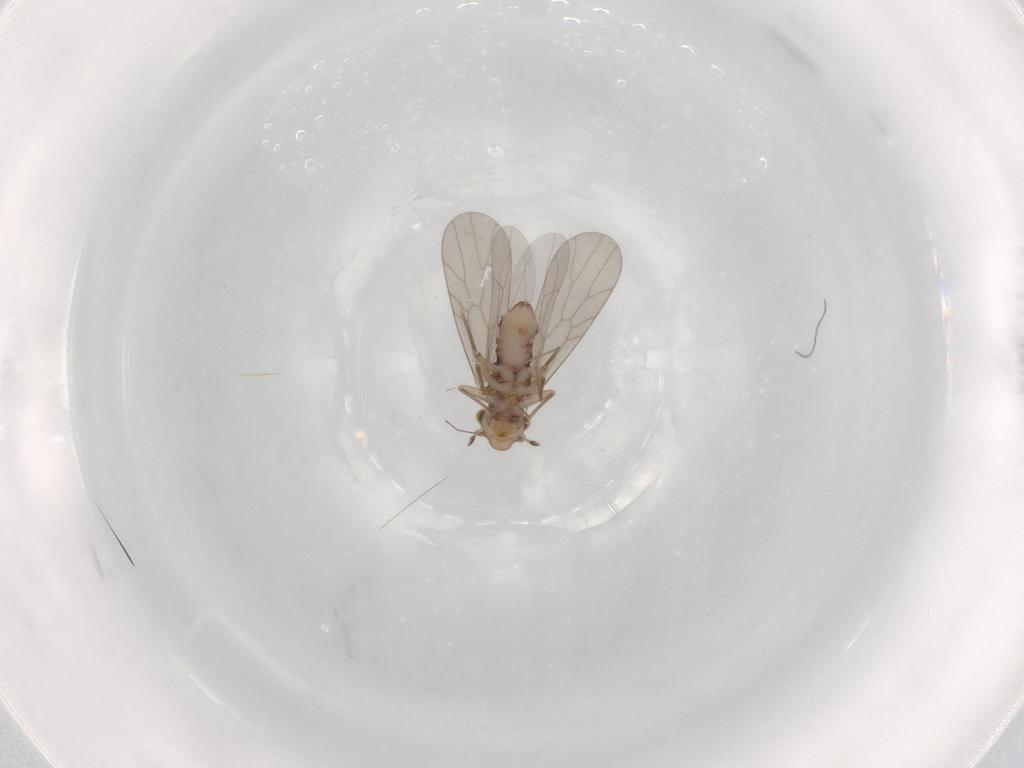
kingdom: Animalia
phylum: Arthropoda
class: Insecta
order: Psocodea
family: Lepidopsocidae
